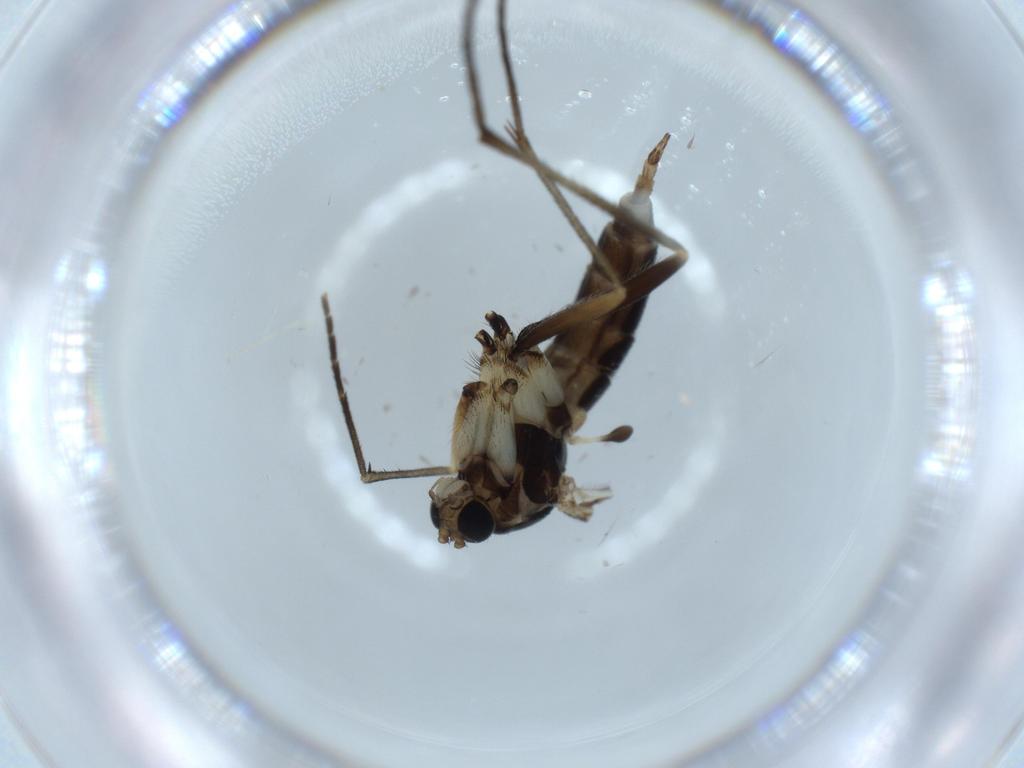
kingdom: Animalia
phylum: Arthropoda
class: Insecta
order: Diptera
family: Sciaridae
